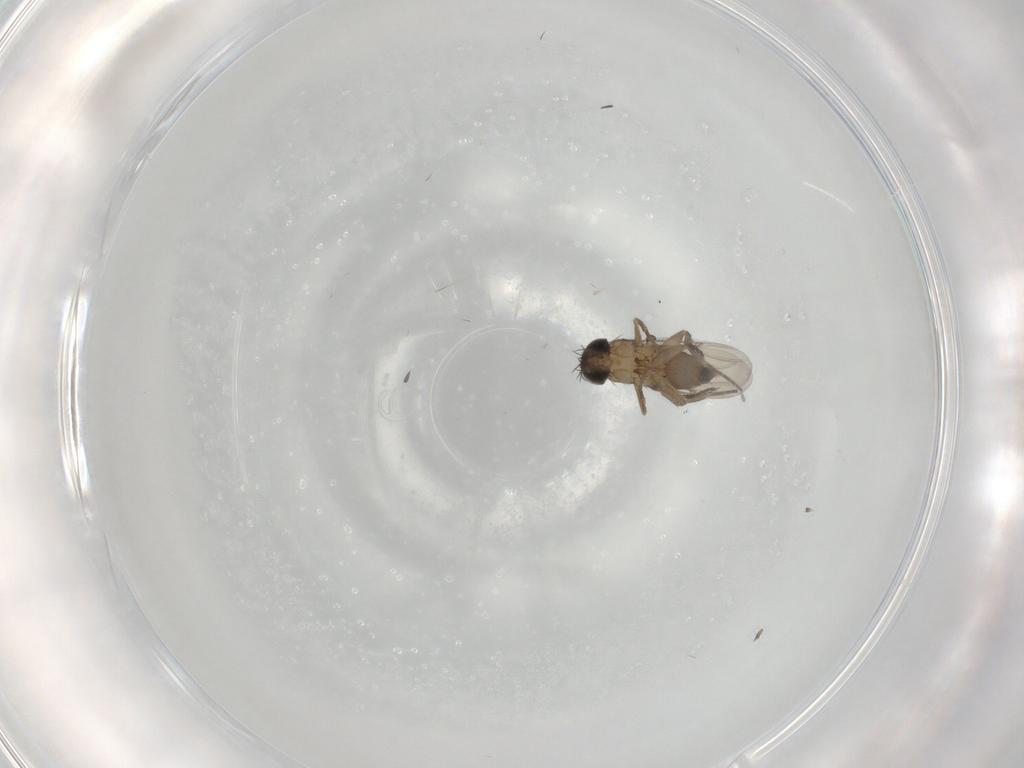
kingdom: Animalia
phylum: Arthropoda
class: Insecta
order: Diptera
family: Phoridae
